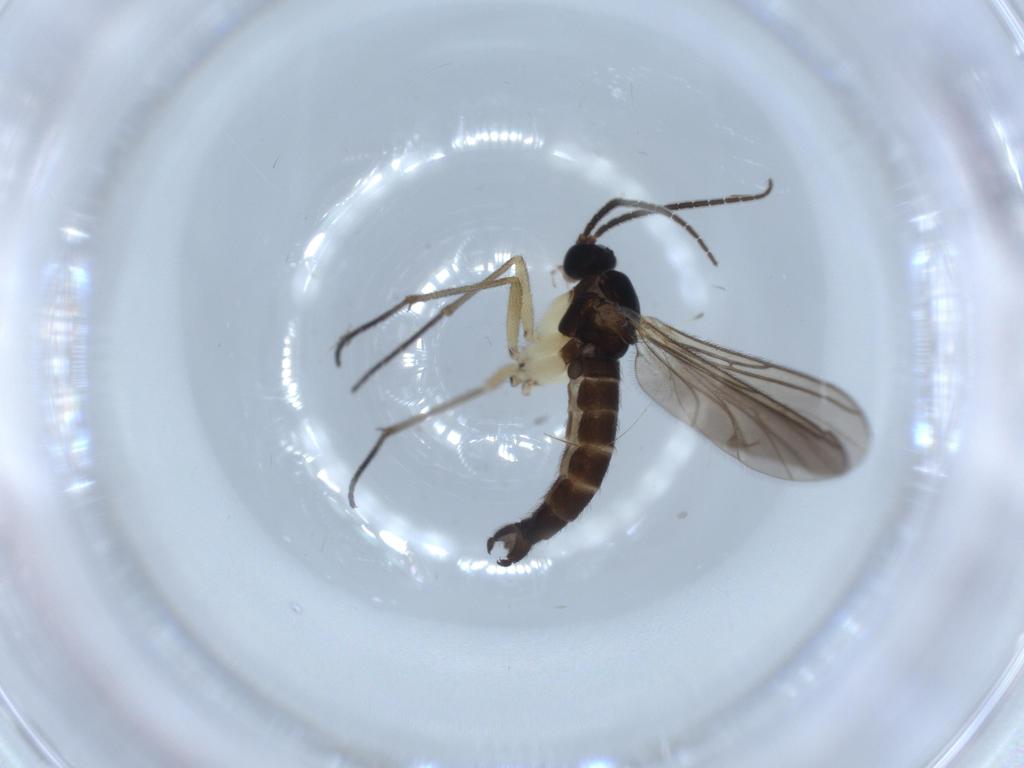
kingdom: Animalia
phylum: Arthropoda
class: Insecta
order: Diptera
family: Sciaridae
